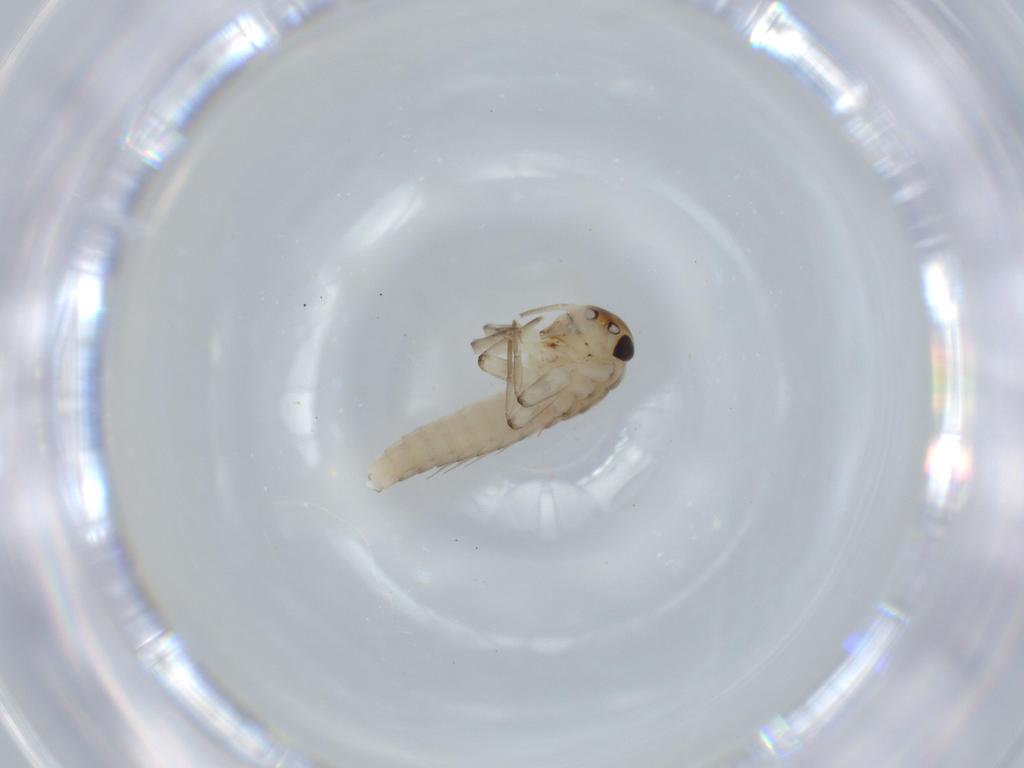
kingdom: Animalia
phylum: Arthropoda
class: Insecta
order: Ephemeroptera
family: Baetidae
